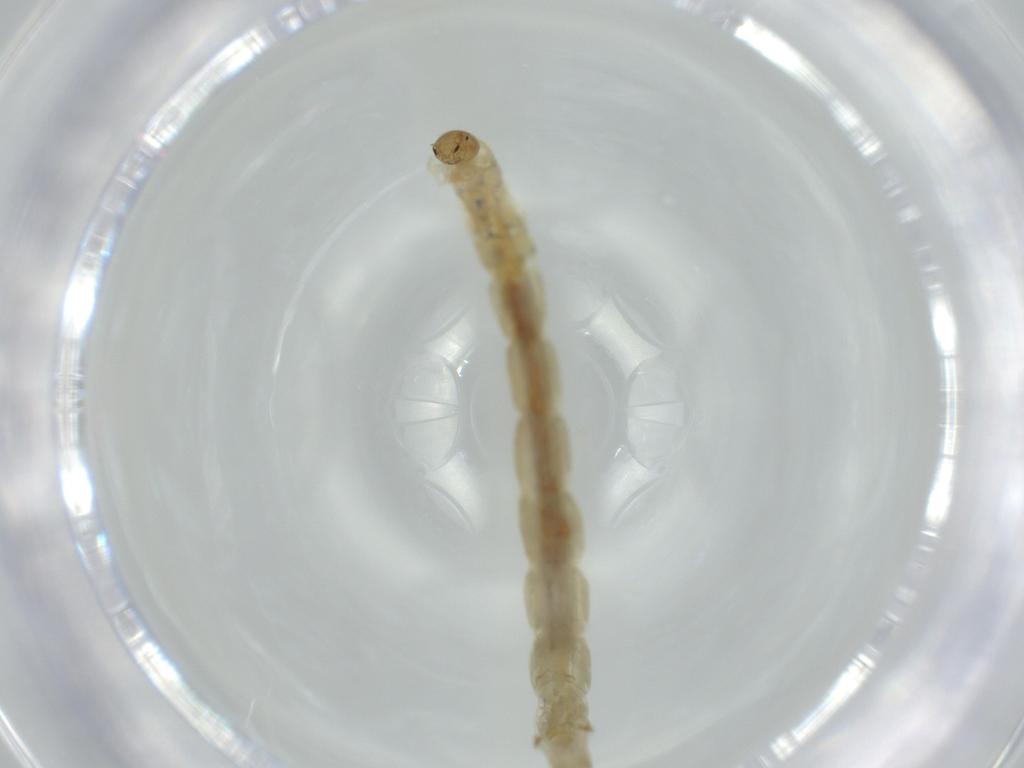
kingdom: Animalia
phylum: Arthropoda
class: Insecta
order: Diptera
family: Chironomidae
